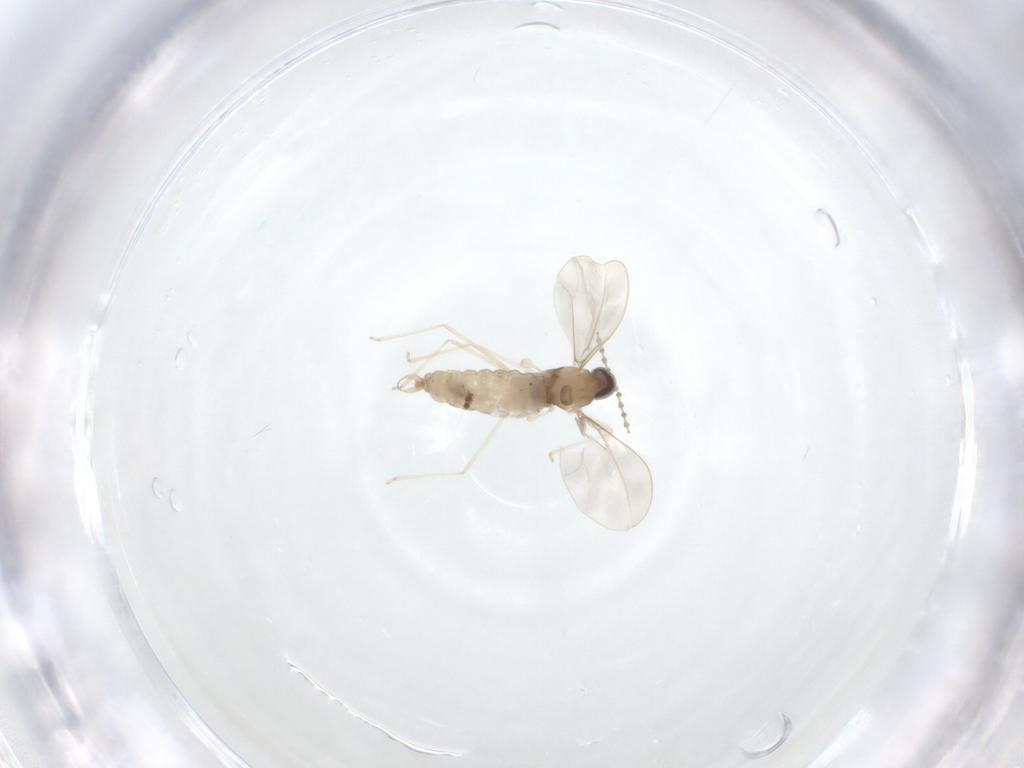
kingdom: Animalia
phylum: Arthropoda
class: Insecta
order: Diptera
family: Cecidomyiidae
